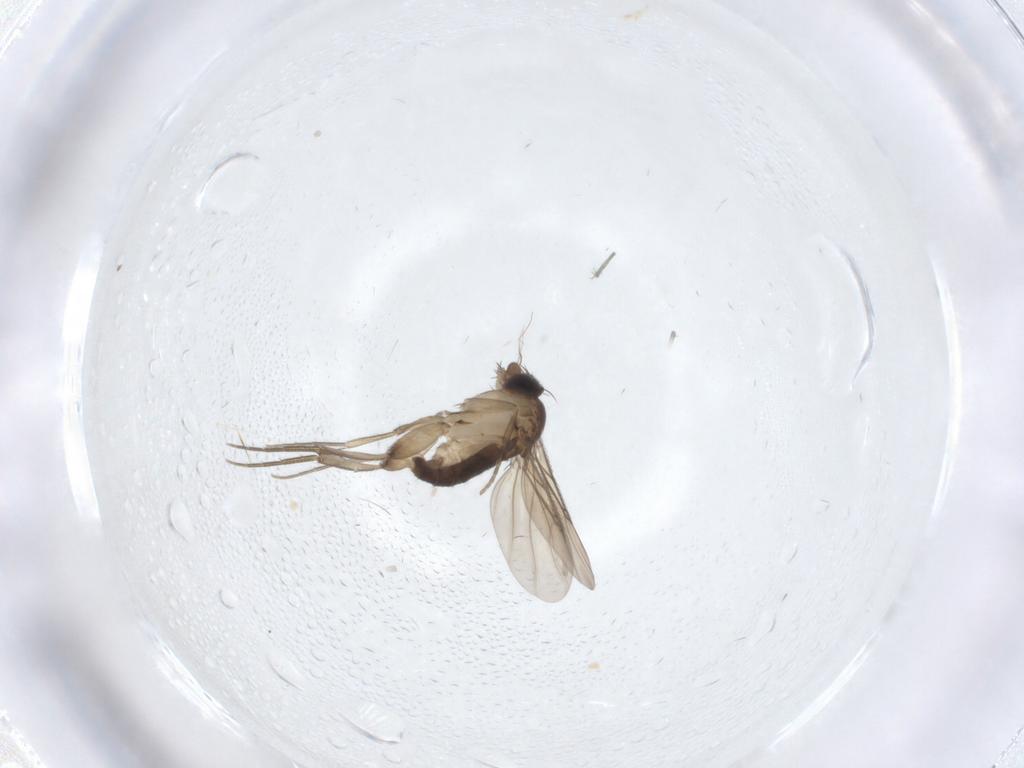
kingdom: Animalia
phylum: Arthropoda
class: Insecta
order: Diptera
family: Phoridae
